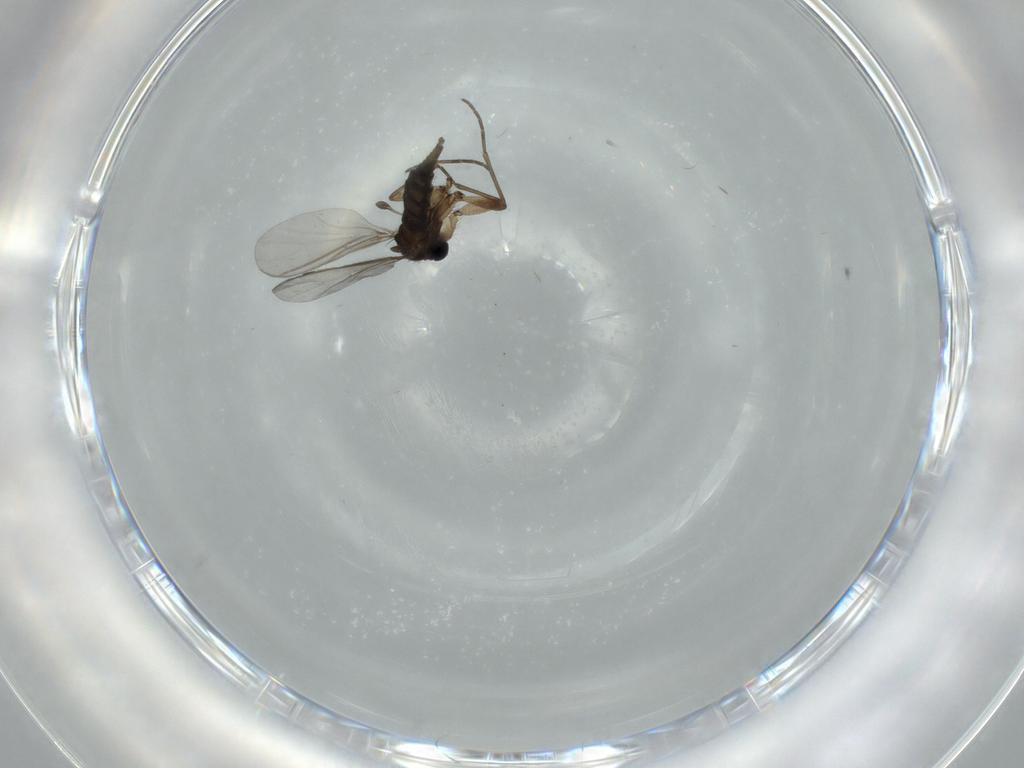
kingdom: Animalia
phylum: Arthropoda
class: Insecta
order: Diptera
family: Sciaridae
